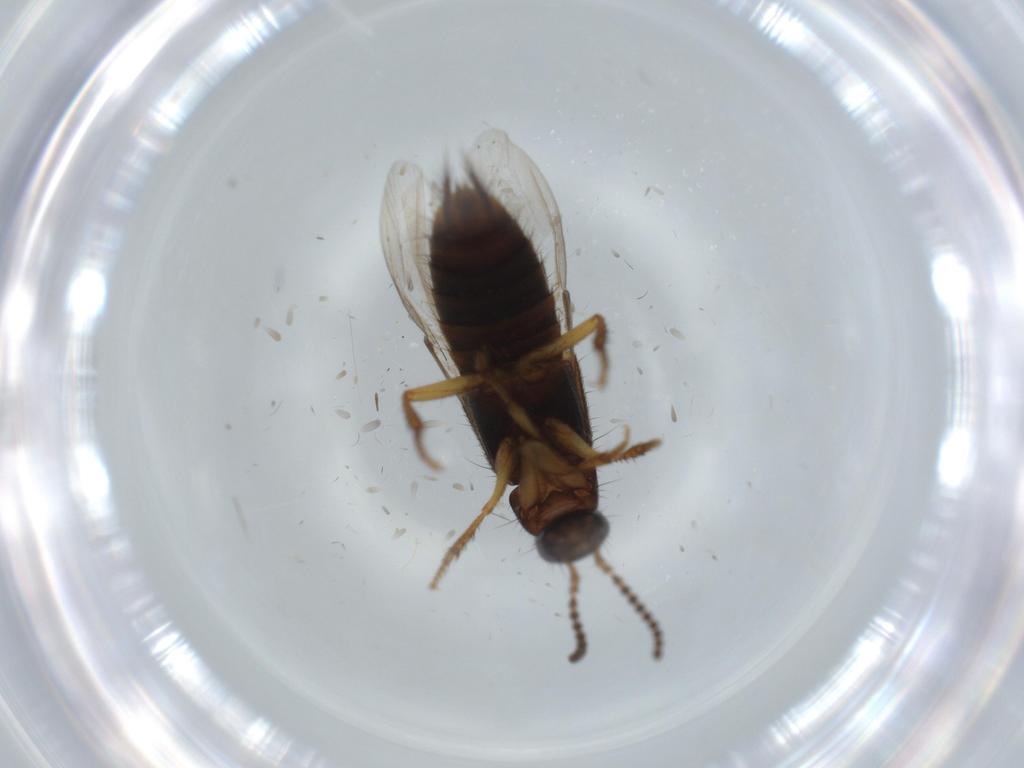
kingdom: Animalia
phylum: Arthropoda
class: Insecta
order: Coleoptera
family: Staphylinidae
